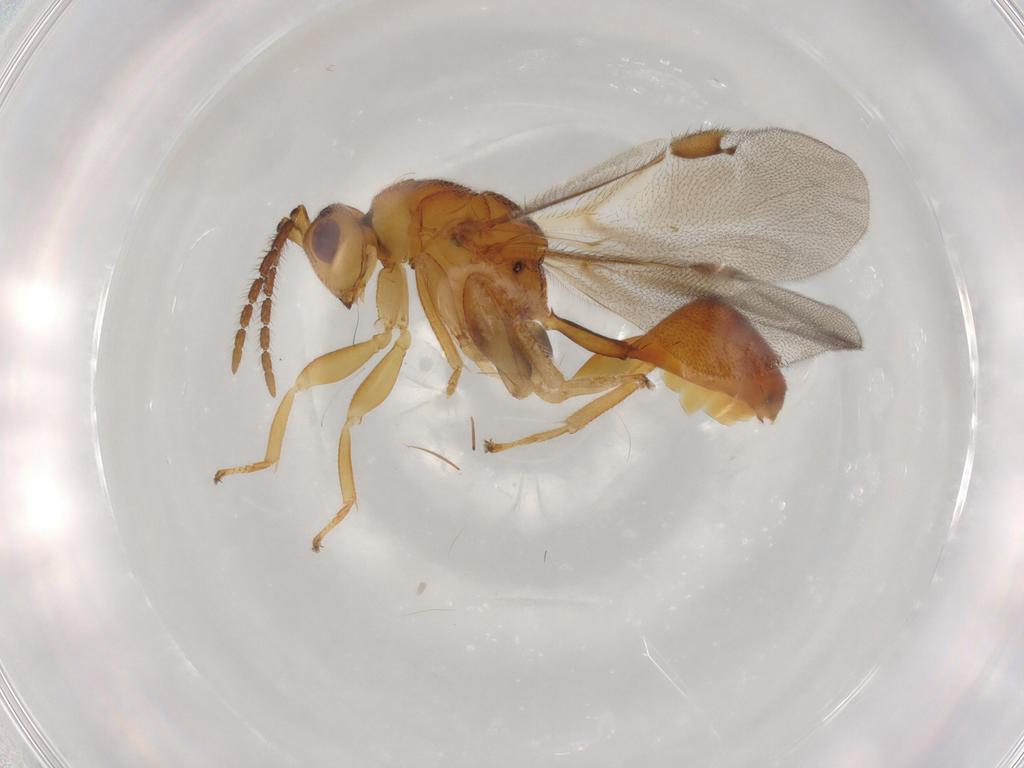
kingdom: Animalia
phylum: Arthropoda
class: Insecta
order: Hymenoptera
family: Eurytomidae
